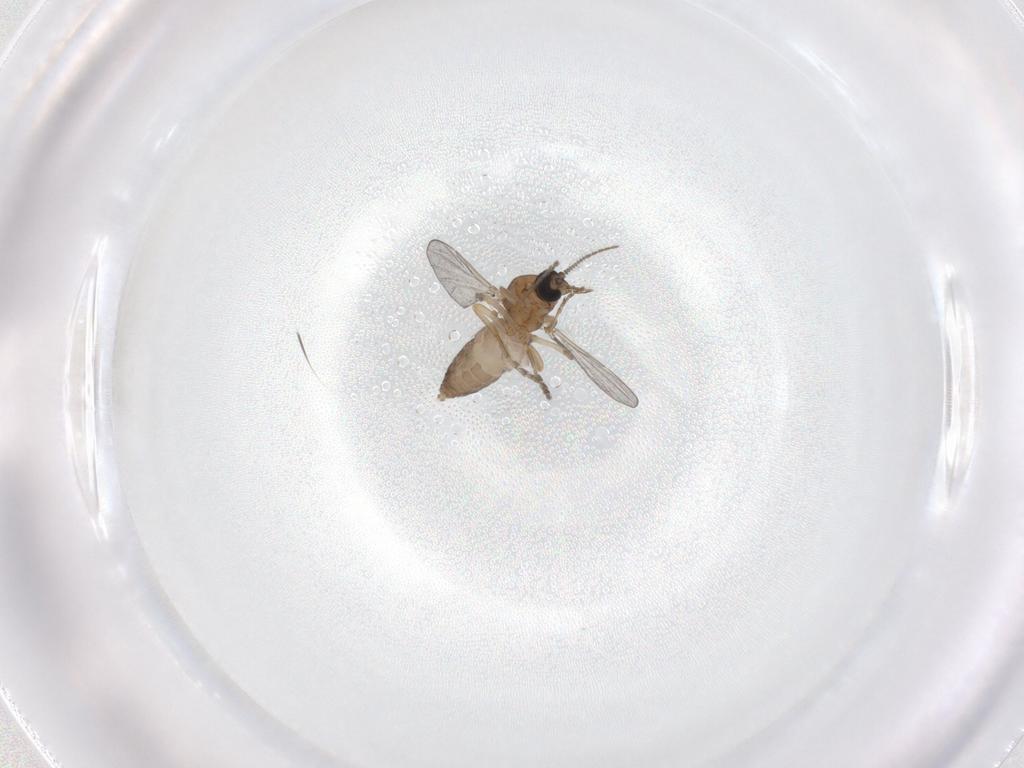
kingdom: Animalia
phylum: Arthropoda
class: Insecta
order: Diptera
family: Ceratopogonidae
